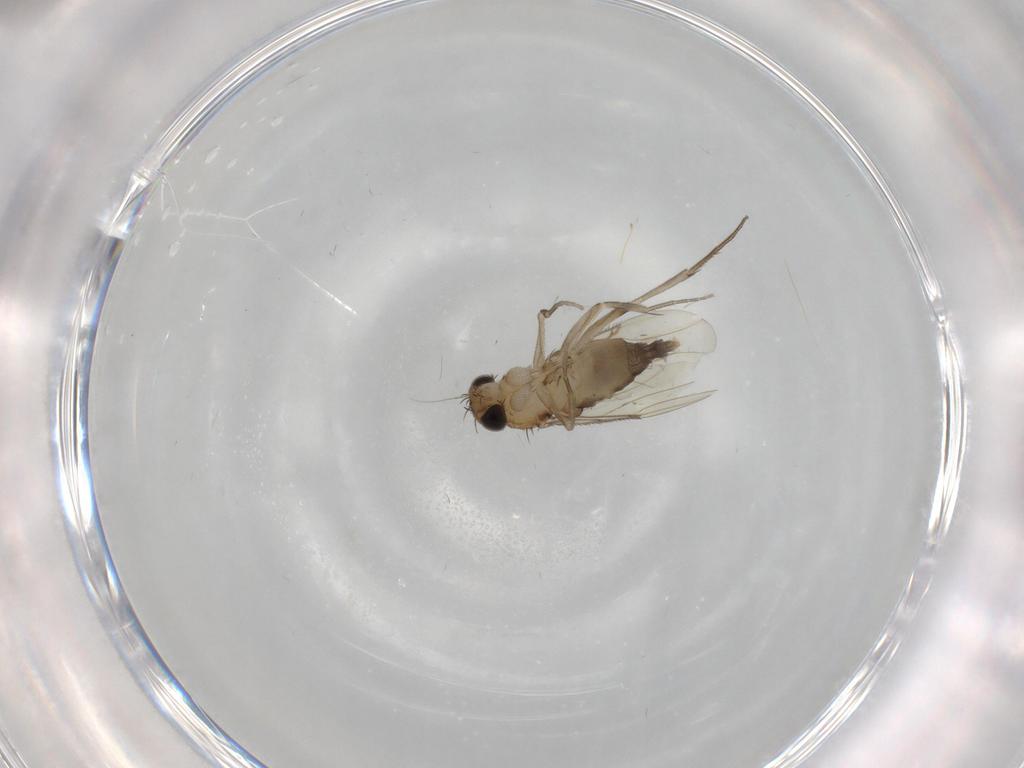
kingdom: Animalia
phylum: Arthropoda
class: Insecta
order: Diptera
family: Phoridae
